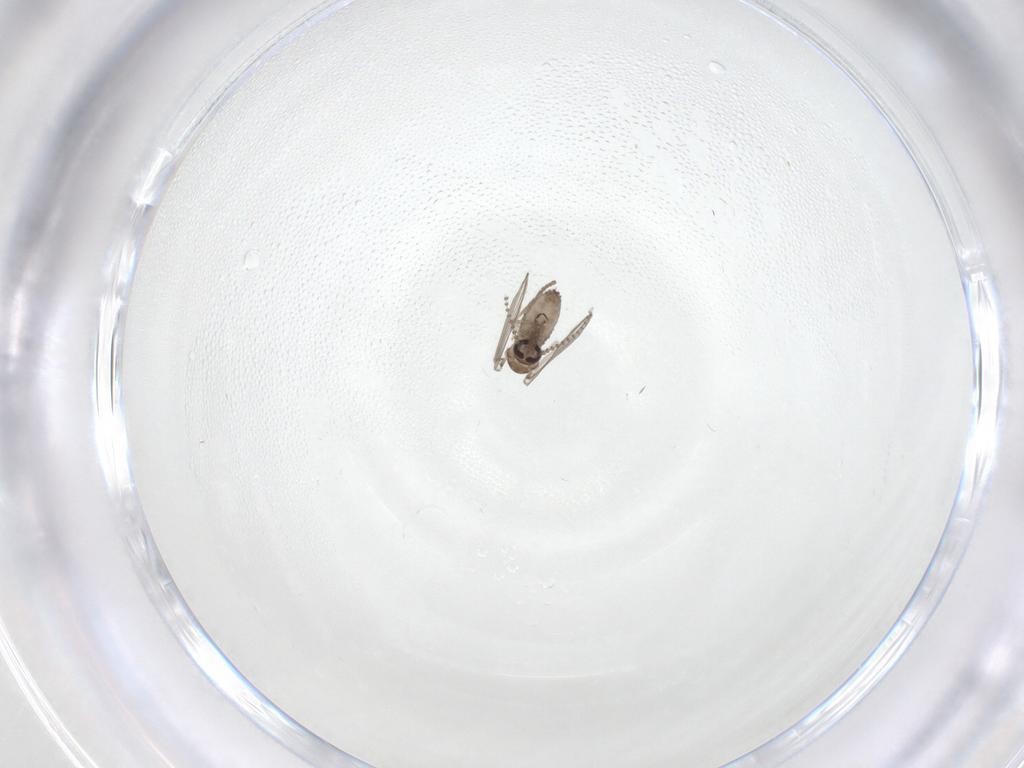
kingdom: Animalia
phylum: Arthropoda
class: Insecta
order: Diptera
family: Psychodidae
